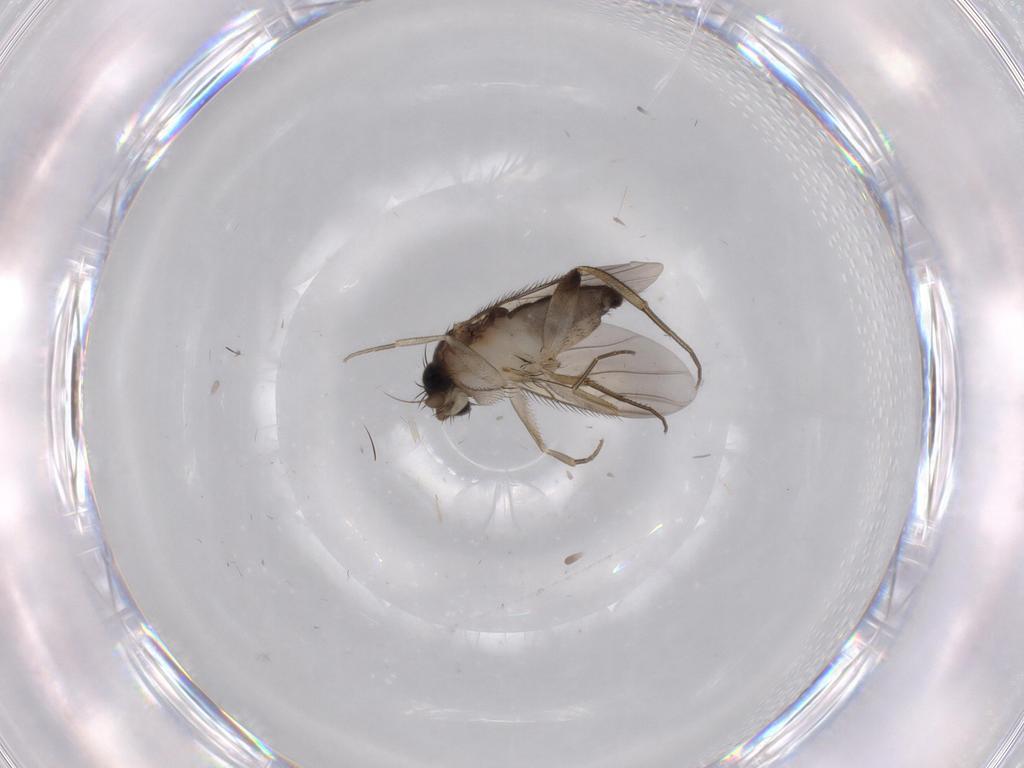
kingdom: Animalia
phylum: Arthropoda
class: Insecta
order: Diptera
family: Phoridae
